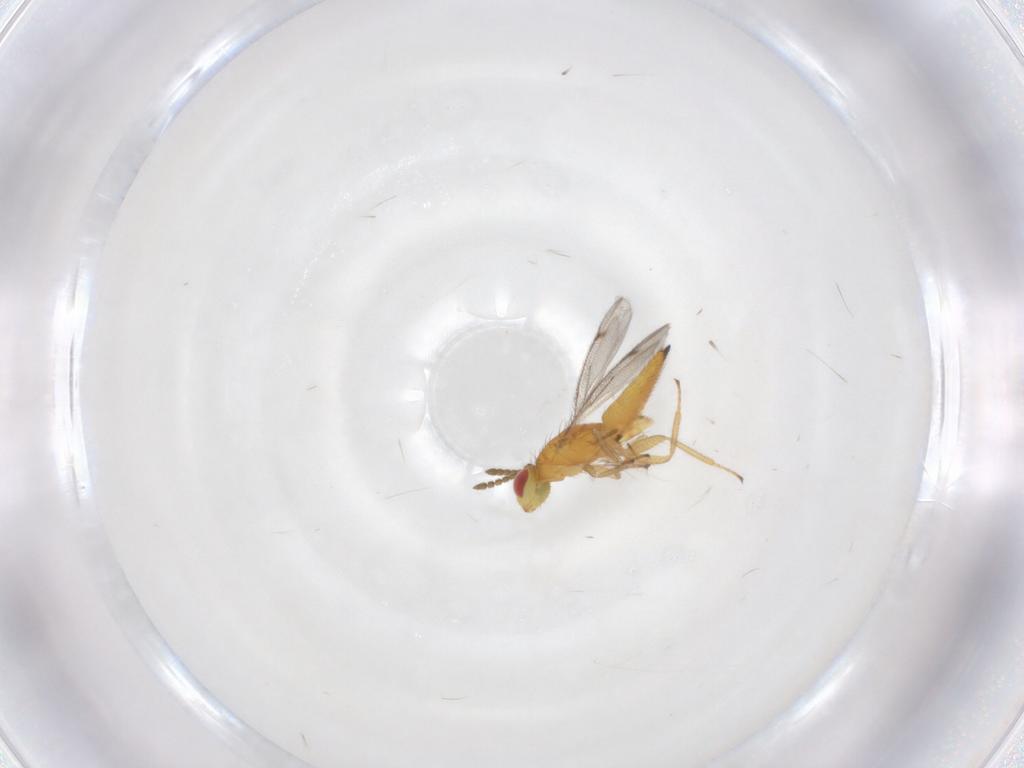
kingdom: Animalia
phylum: Arthropoda
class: Insecta
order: Hymenoptera
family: Eulophidae
